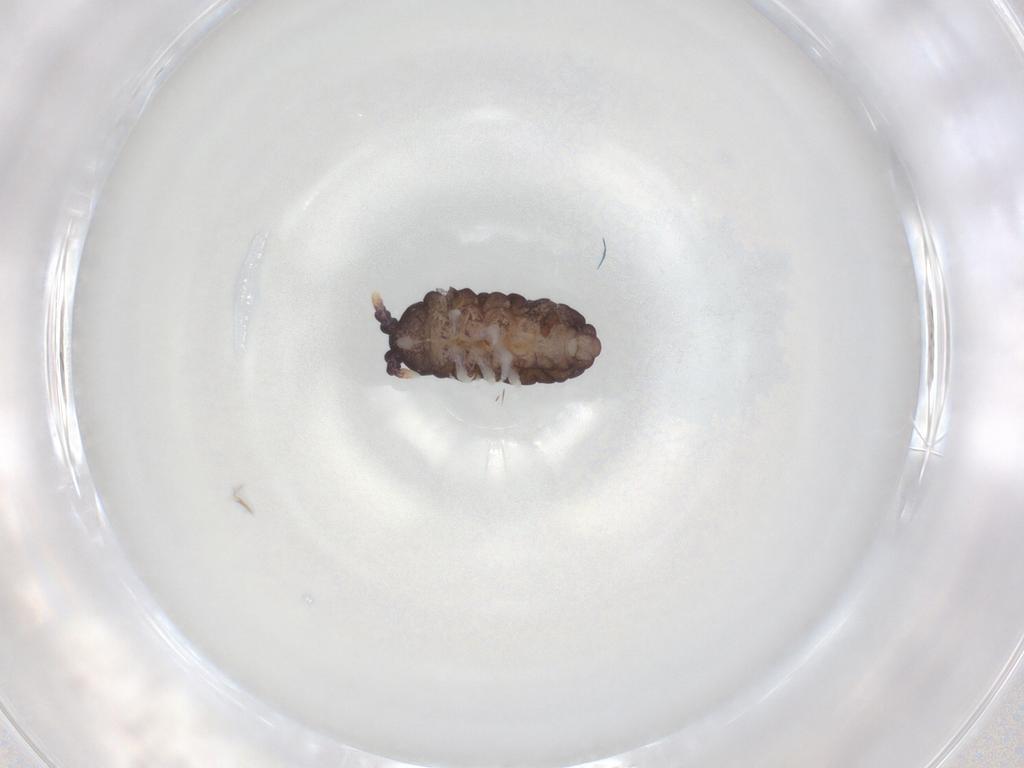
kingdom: Animalia
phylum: Arthropoda
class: Collembola
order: Poduromorpha
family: Neanuridae
